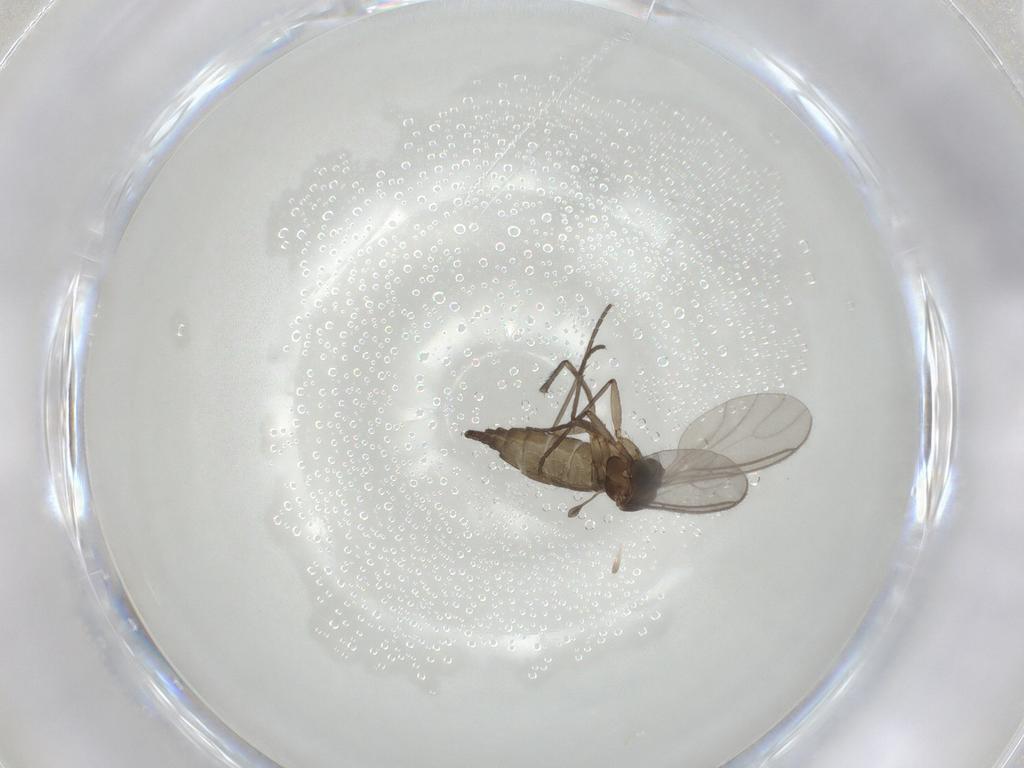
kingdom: Animalia
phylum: Arthropoda
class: Insecta
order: Diptera
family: Sciaridae
